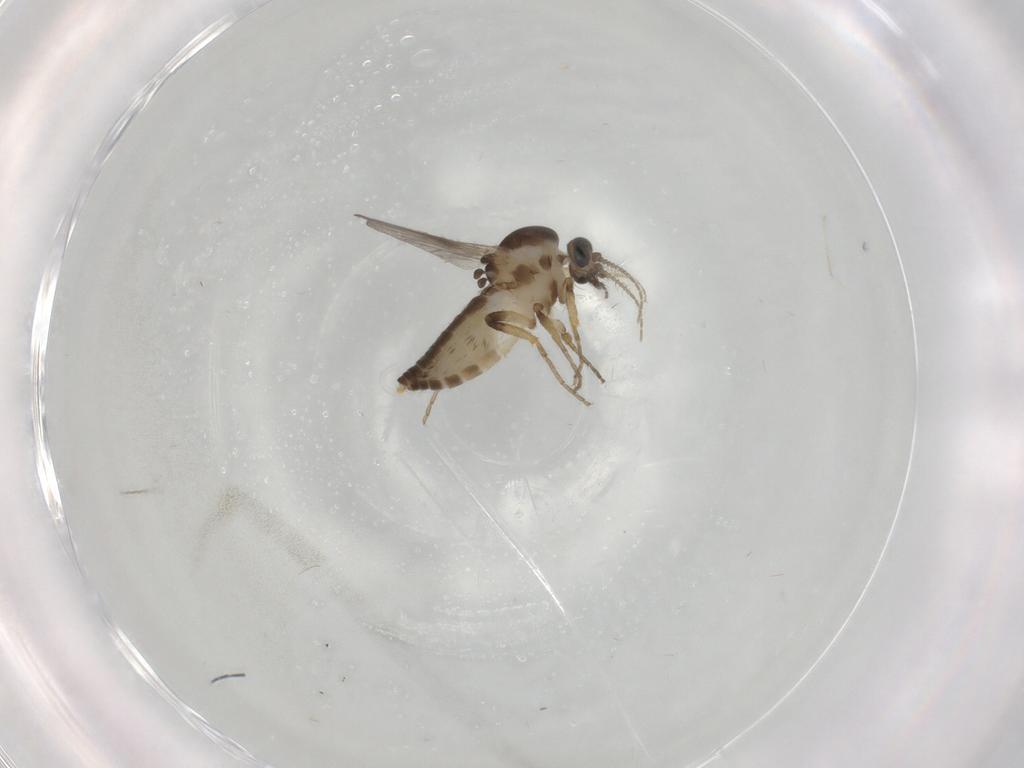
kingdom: Animalia
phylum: Arthropoda
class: Insecta
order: Diptera
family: Ceratopogonidae
